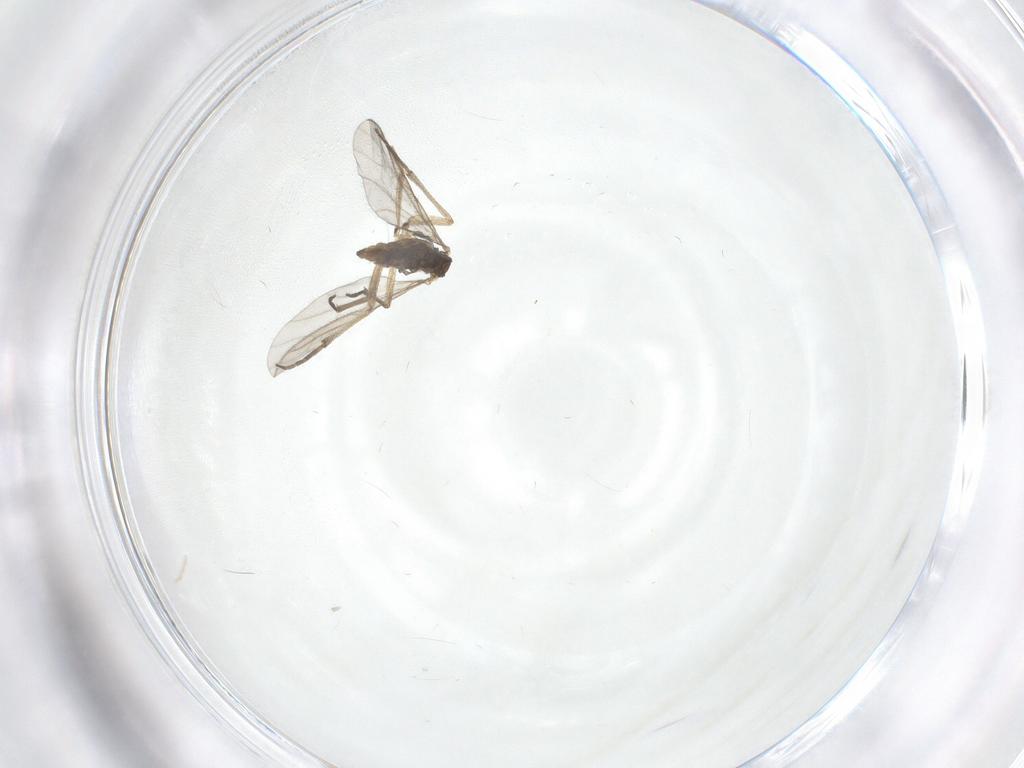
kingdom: Animalia
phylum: Arthropoda
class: Insecta
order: Diptera
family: Sciaridae
